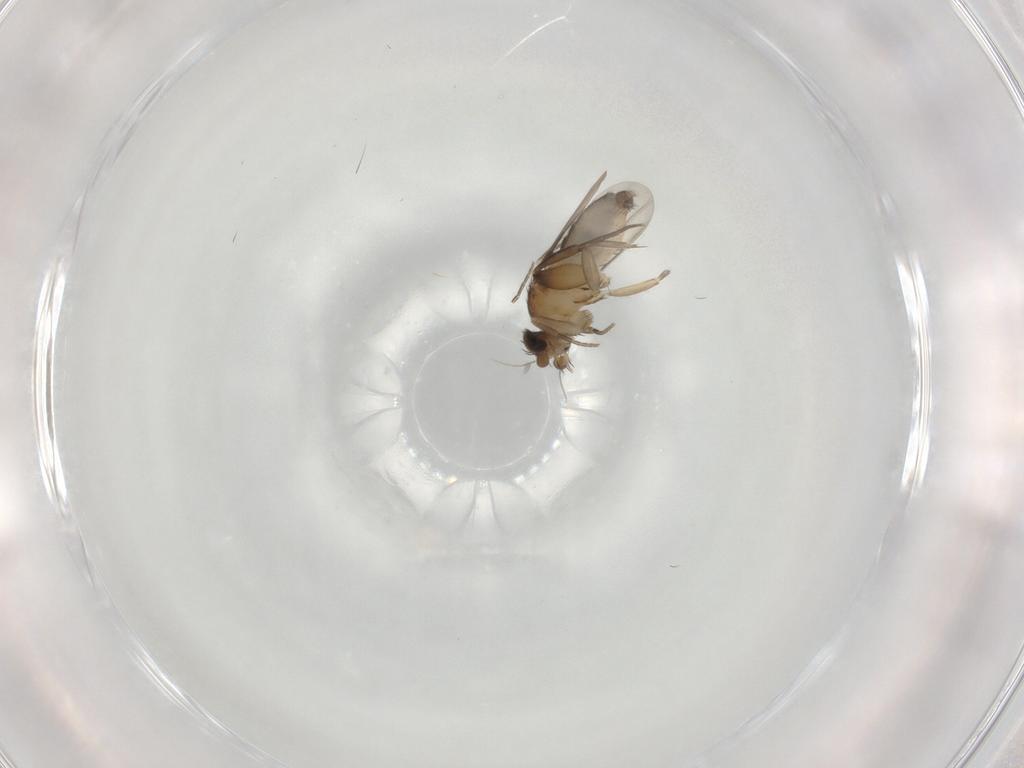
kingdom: Animalia
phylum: Arthropoda
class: Insecta
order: Diptera
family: Phoridae
